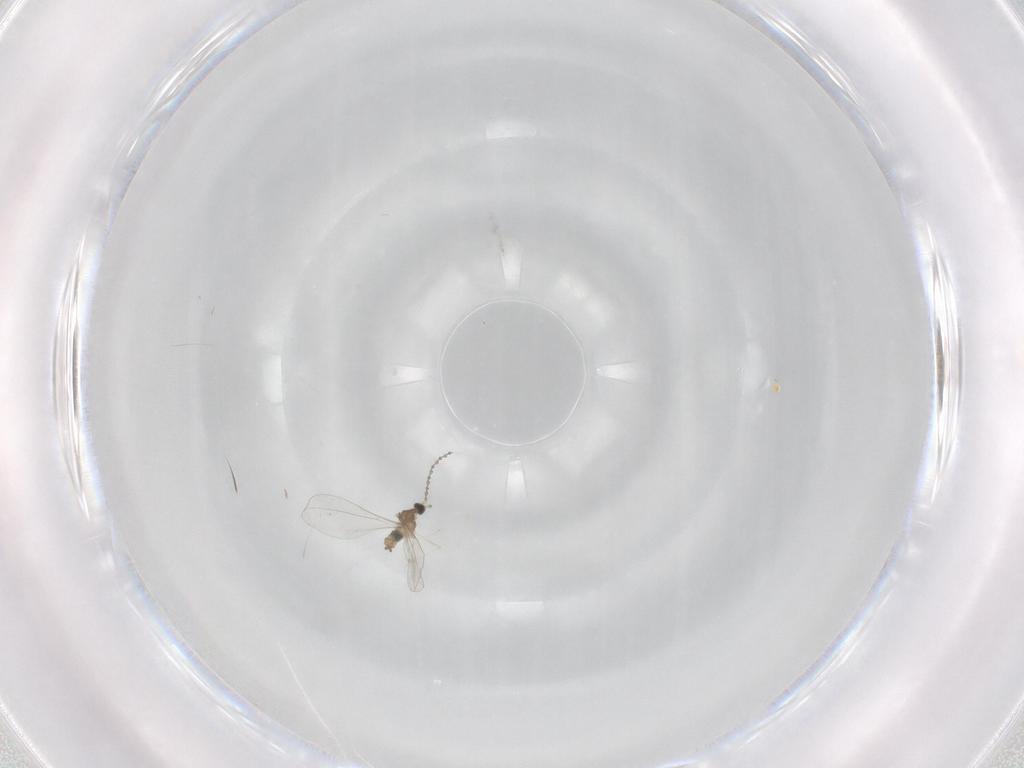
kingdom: Animalia
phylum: Arthropoda
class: Insecta
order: Diptera
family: Cecidomyiidae
